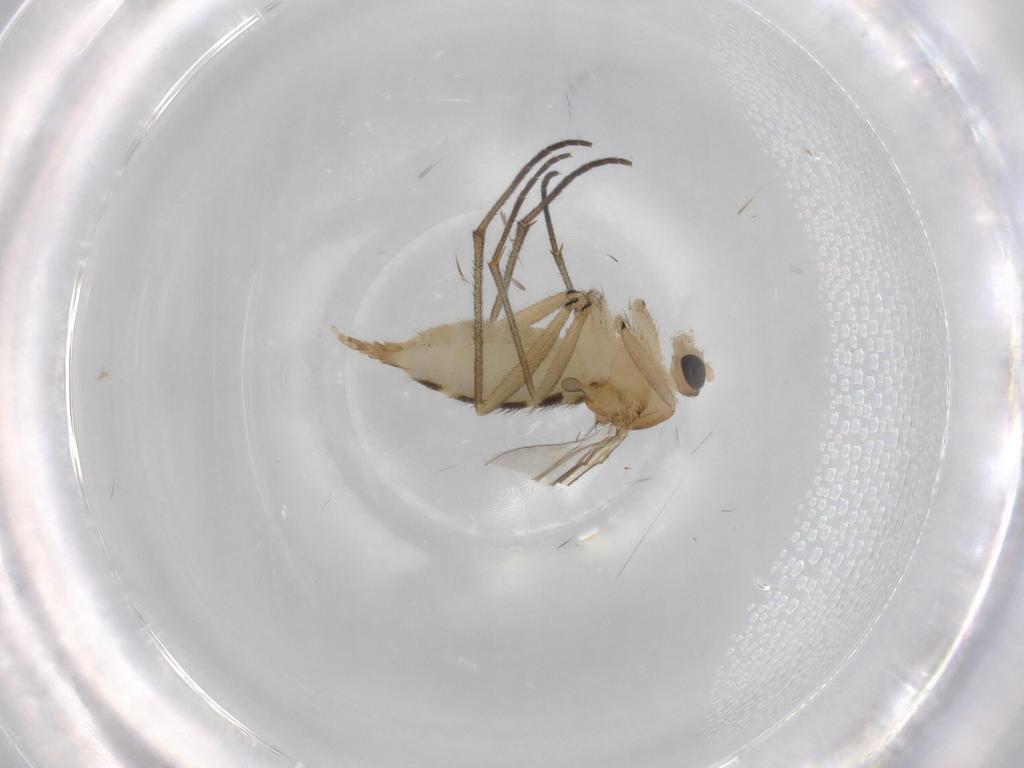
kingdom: Animalia
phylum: Arthropoda
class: Insecta
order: Diptera
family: Sciaridae
